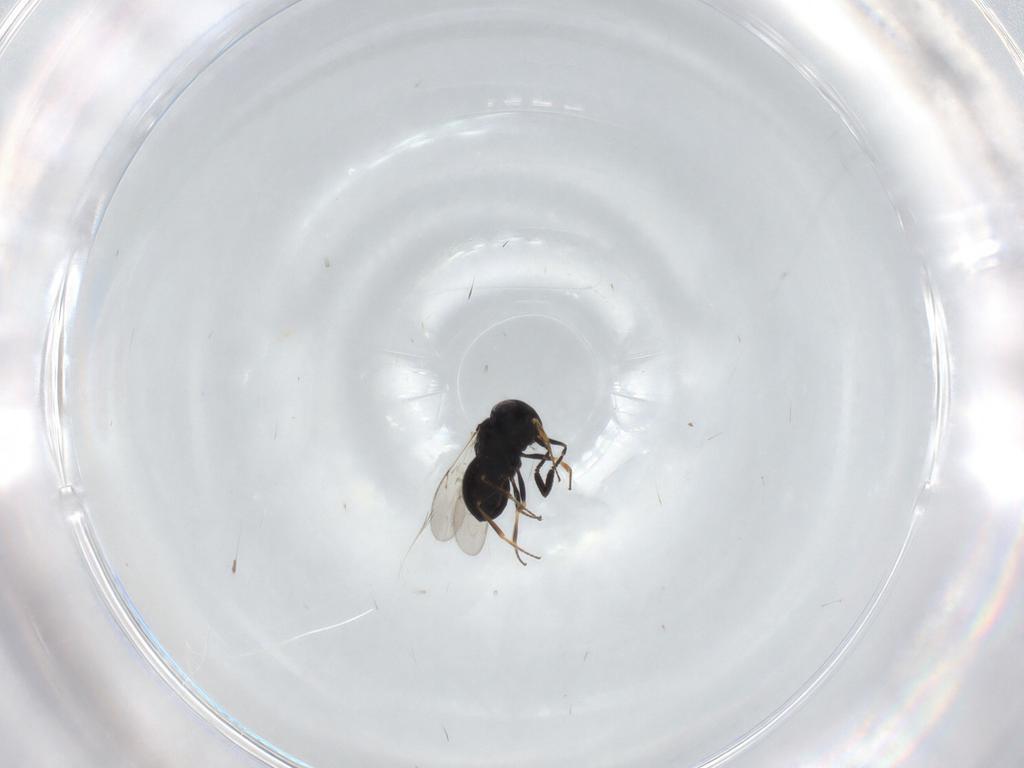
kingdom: Animalia
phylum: Arthropoda
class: Insecta
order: Hymenoptera
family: Scelionidae
